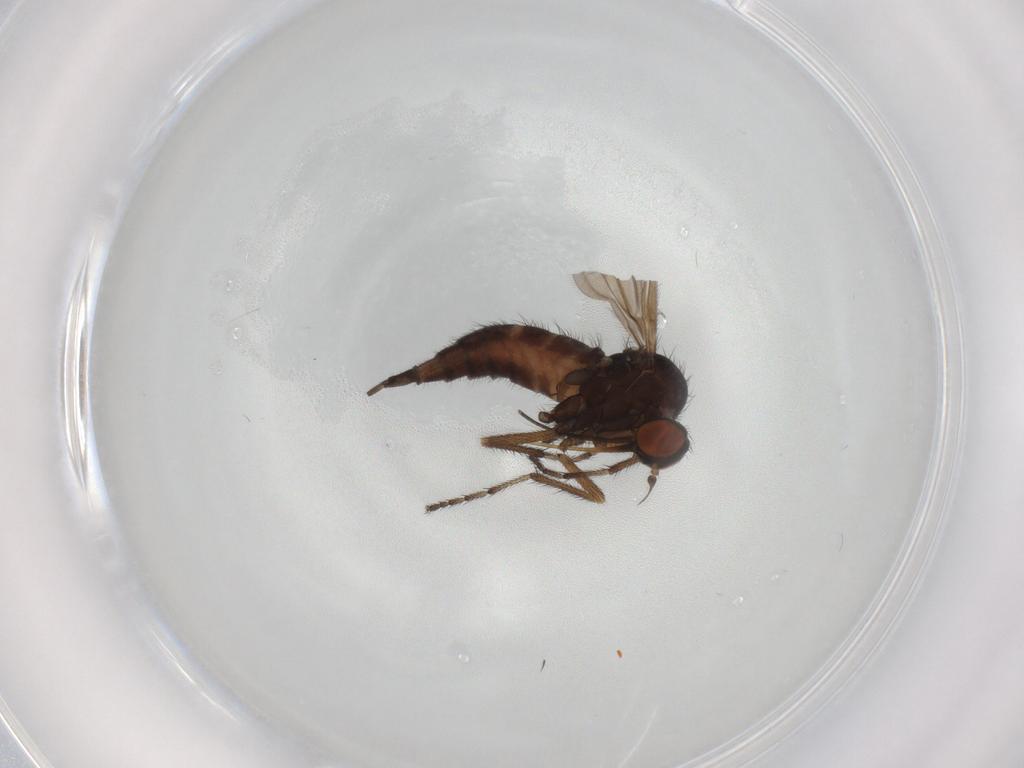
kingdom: Animalia
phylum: Arthropoda
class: Insecta
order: Diptera
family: Empididae
